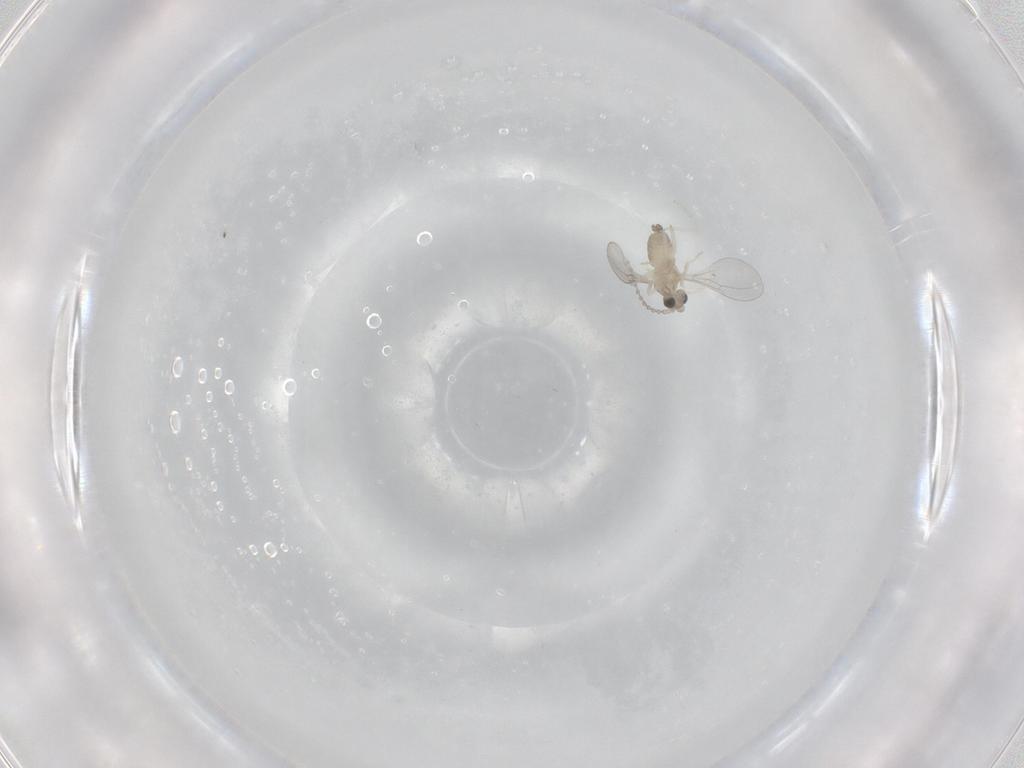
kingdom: Animalia
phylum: Arthropoda
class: Insecta
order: Diptera
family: Cecidomyiidae
